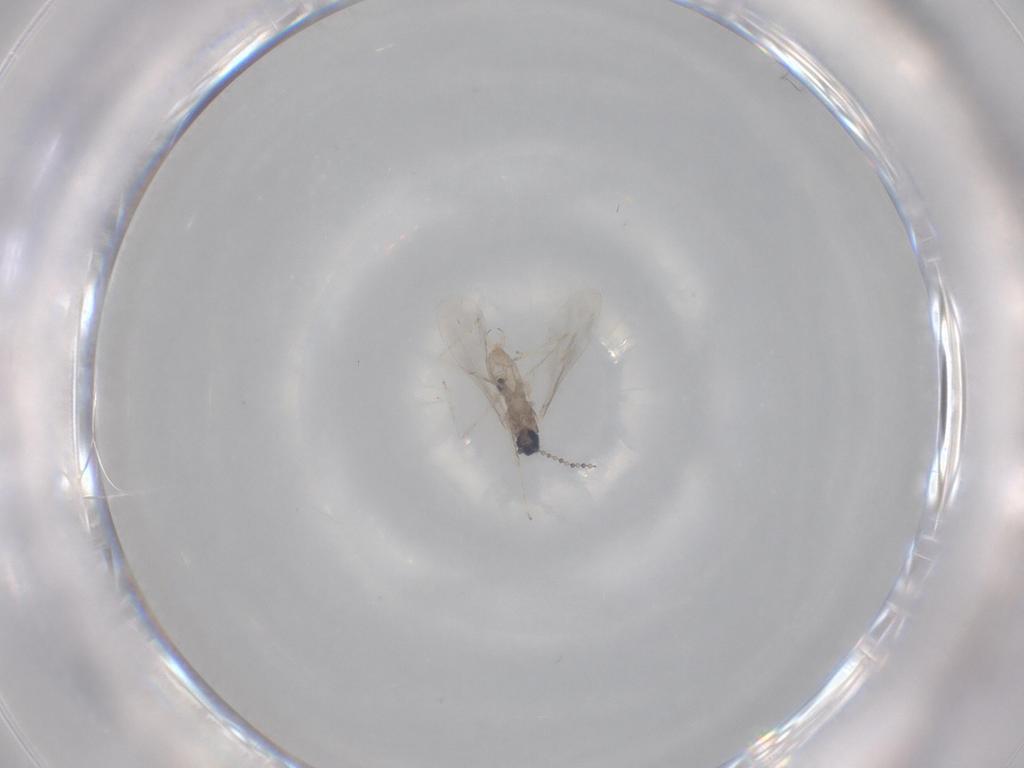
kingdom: Animalia
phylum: Arthropoda
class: Insecta
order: Diptera
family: Cecidomyiidae
